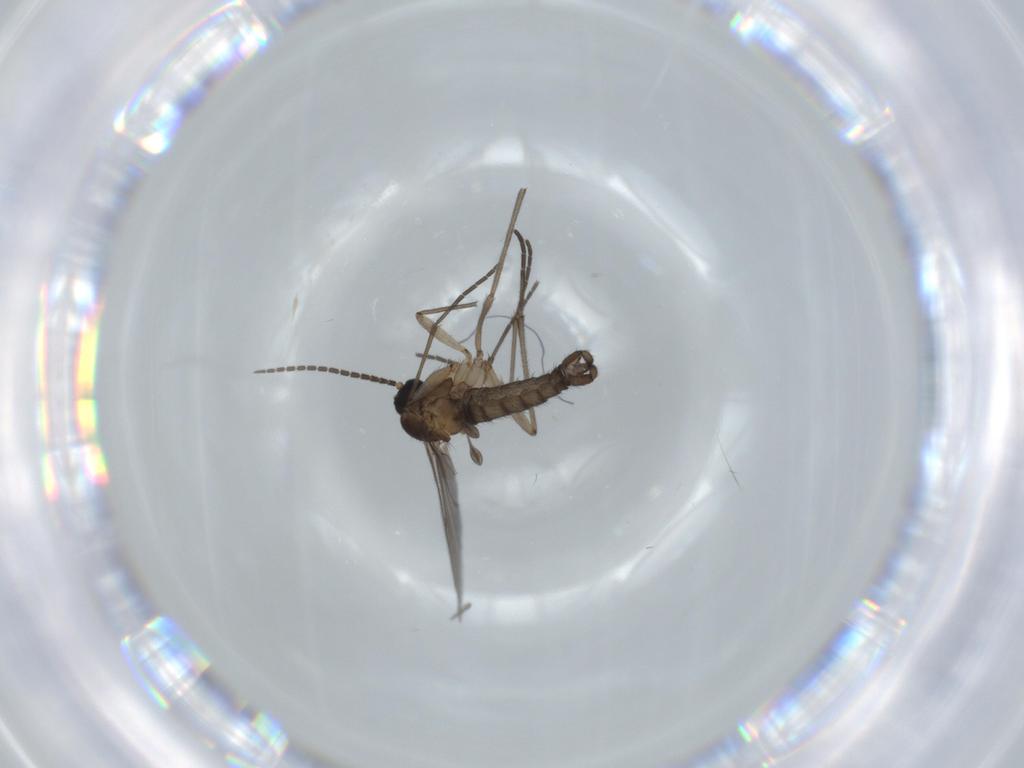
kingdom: Animalia
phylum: Arthropoda
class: Insecta
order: Diptera
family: Sciaridae
